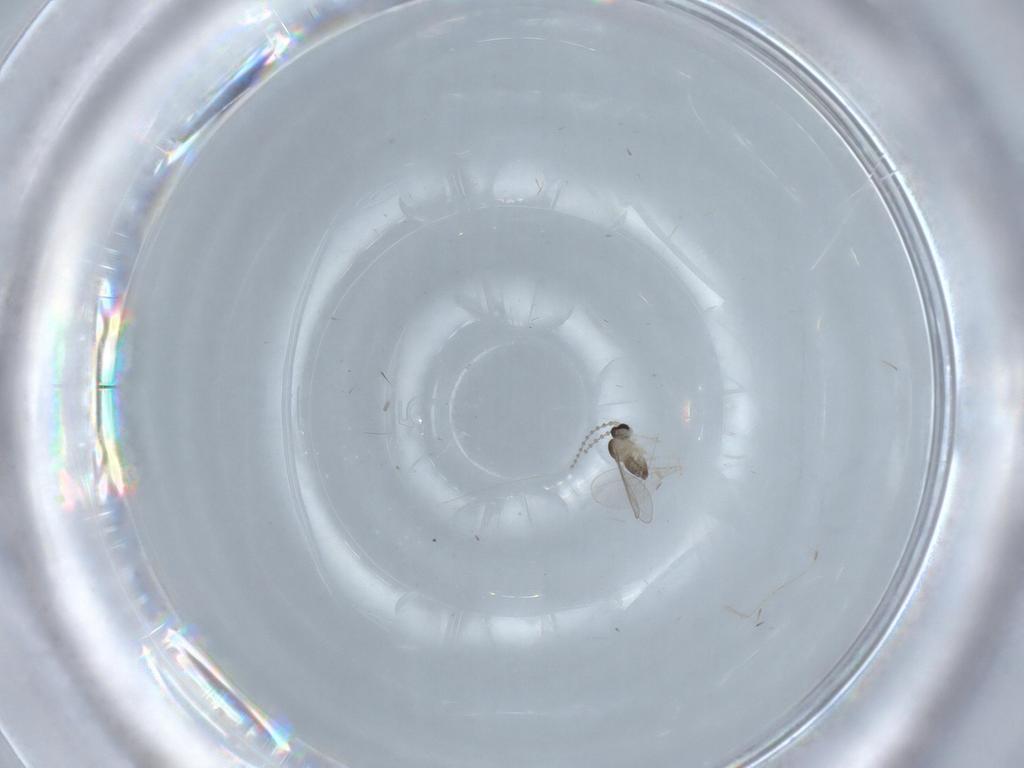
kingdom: Animalia
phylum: Arthropoda
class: Insecta
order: Diptera
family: Cecidomyiidae
